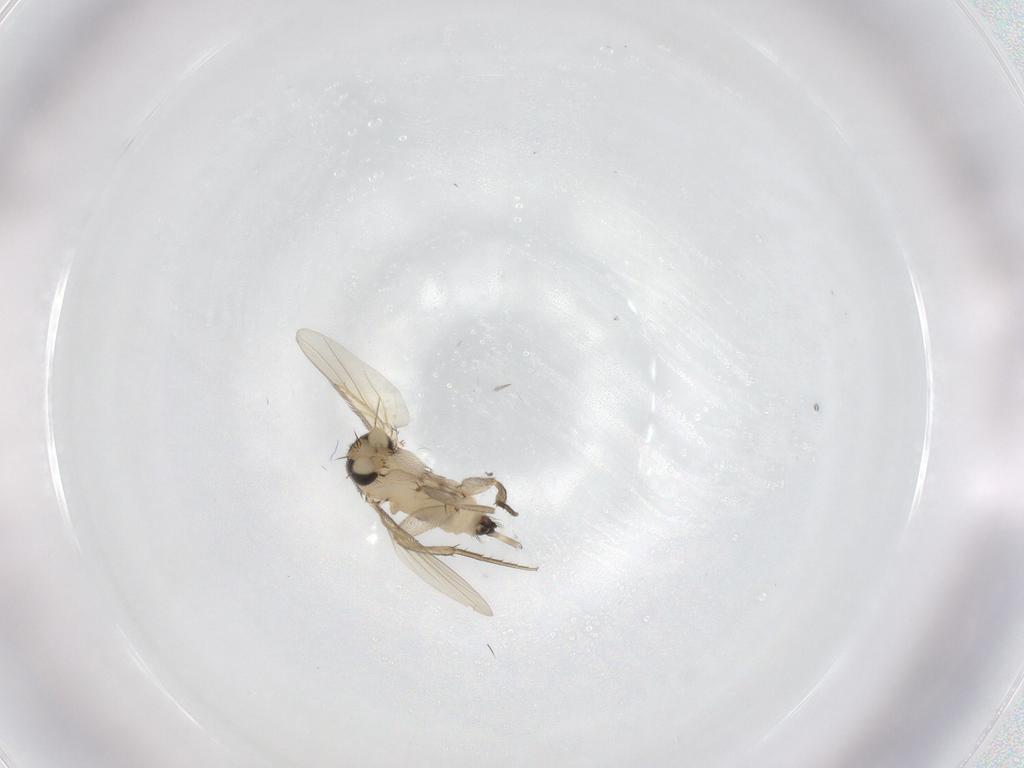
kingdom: Animalia
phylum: Arthropoda
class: Insecta
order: Diptera
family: Phoridae
